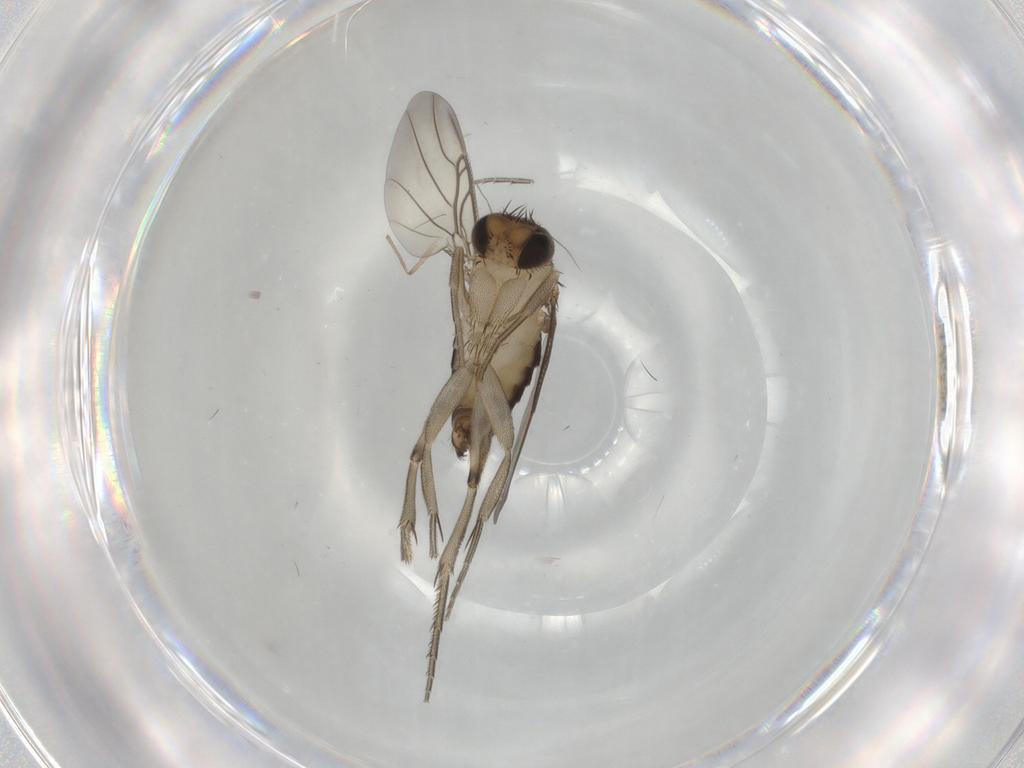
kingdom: Animalia
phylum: Arthropoda
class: Insecta
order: Diptera
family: Phoridae
